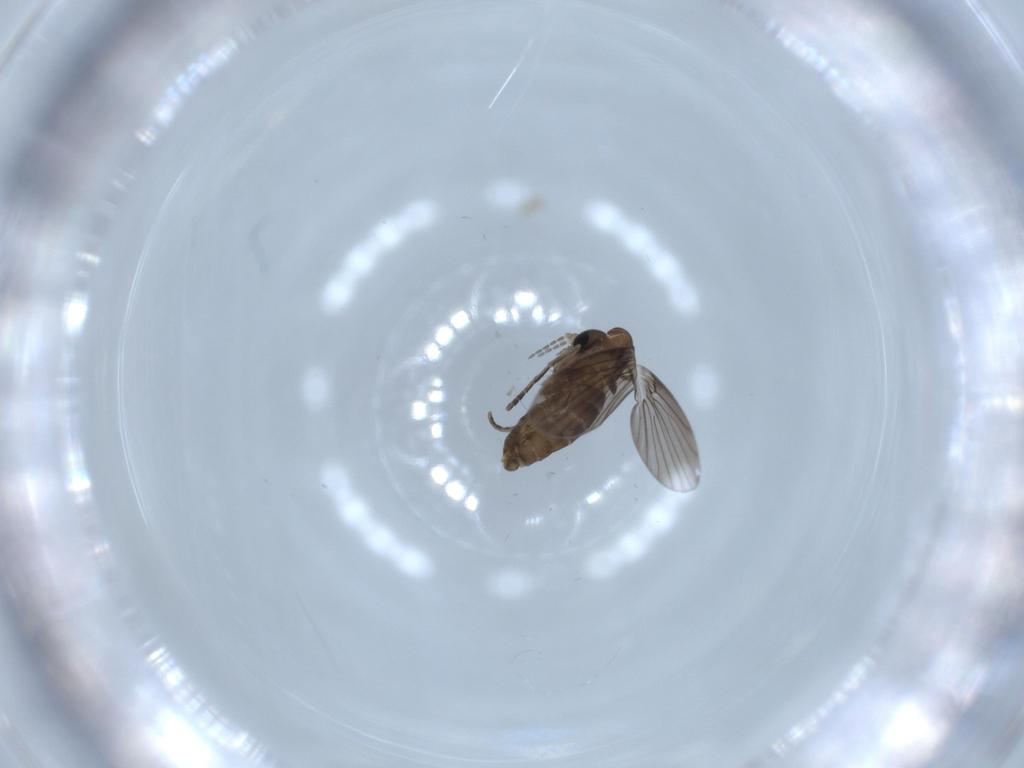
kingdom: Animalia
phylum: Arthropoda
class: Insecta
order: Diptera
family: Psychodidae
